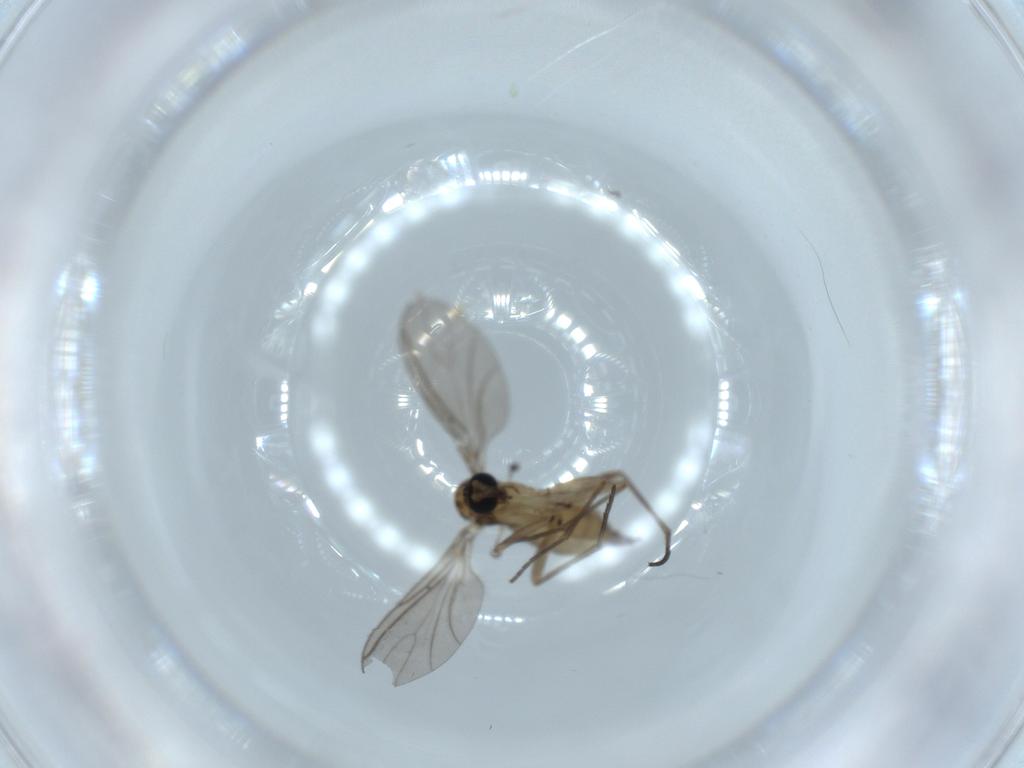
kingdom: Animalia
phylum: Arthropoda
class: Insecta
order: Diptera
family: Sciaridae
